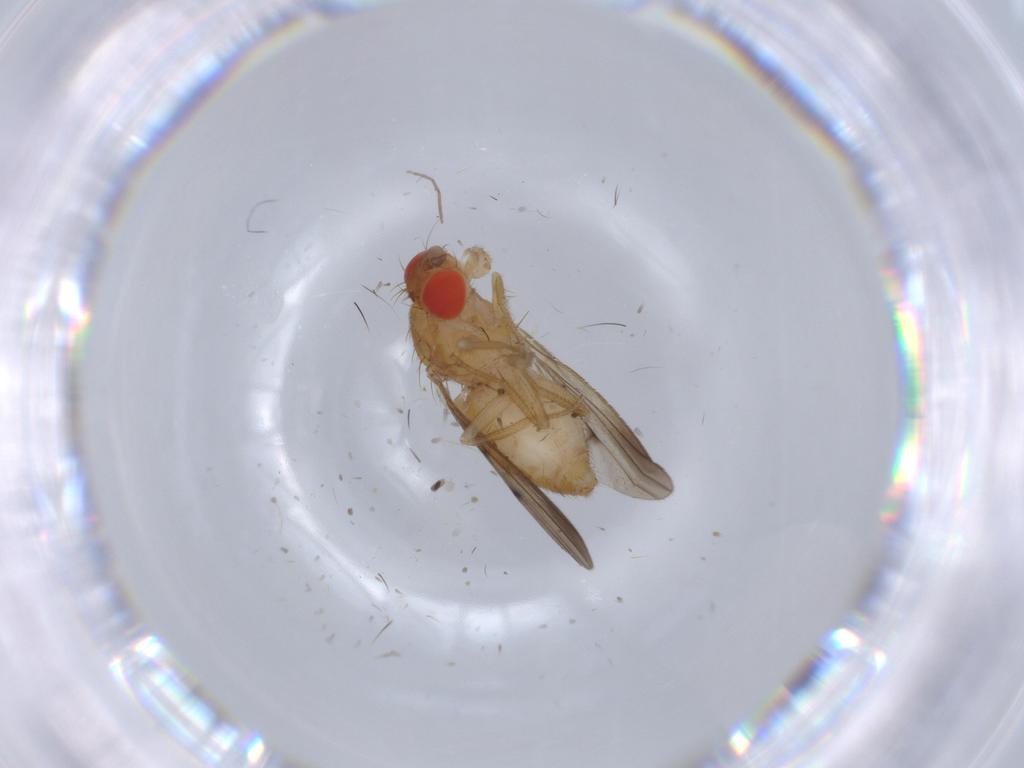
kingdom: Animalia
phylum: Arthropoda
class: Insecta
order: Diptera
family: Drosophilidae
